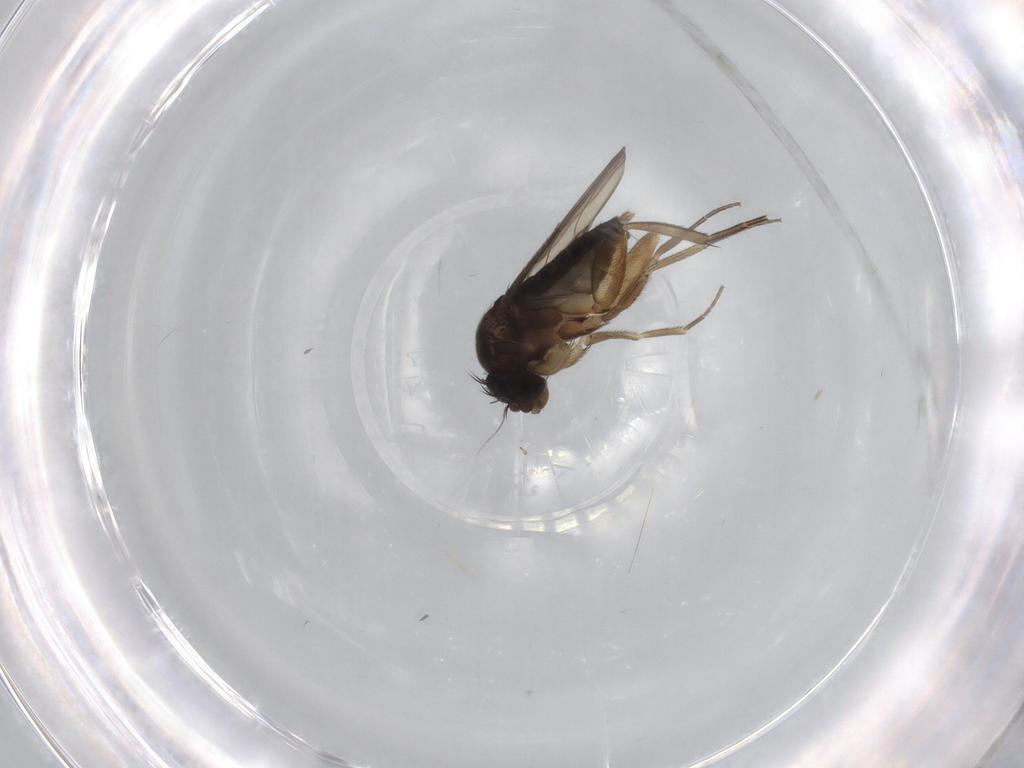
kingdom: Animalia
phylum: Arthropoda
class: Insecta
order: Diptera
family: Phoridae
